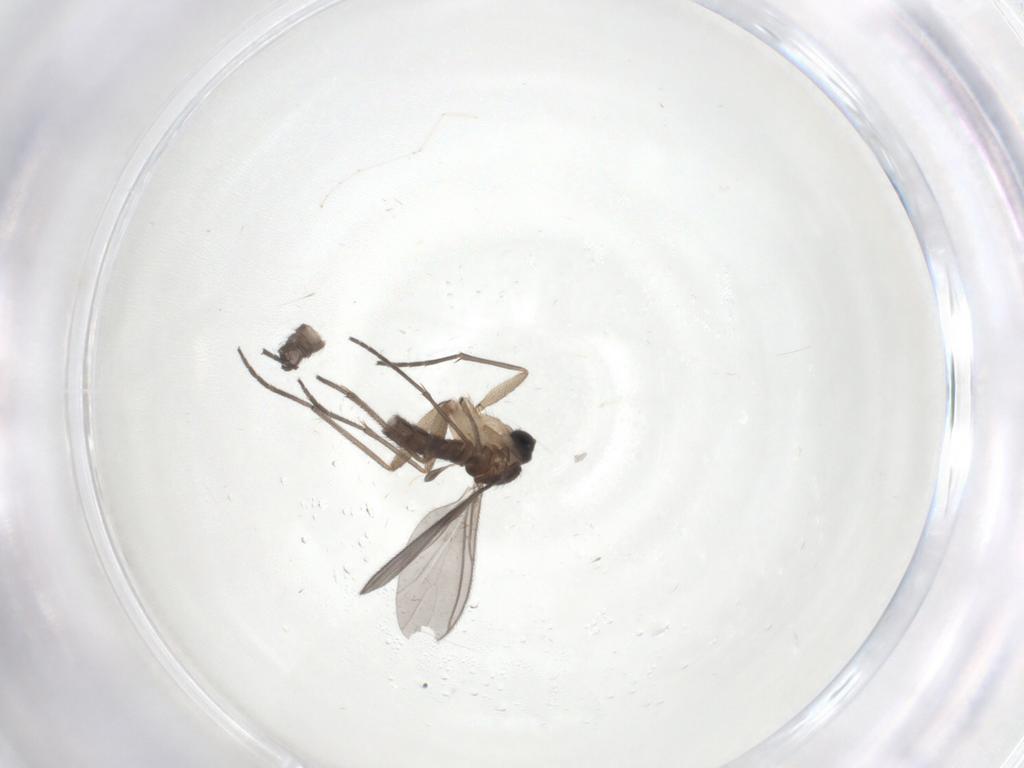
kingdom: Animalia
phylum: Arthropoda
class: Insecta
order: Diptera
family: Sciaridae
